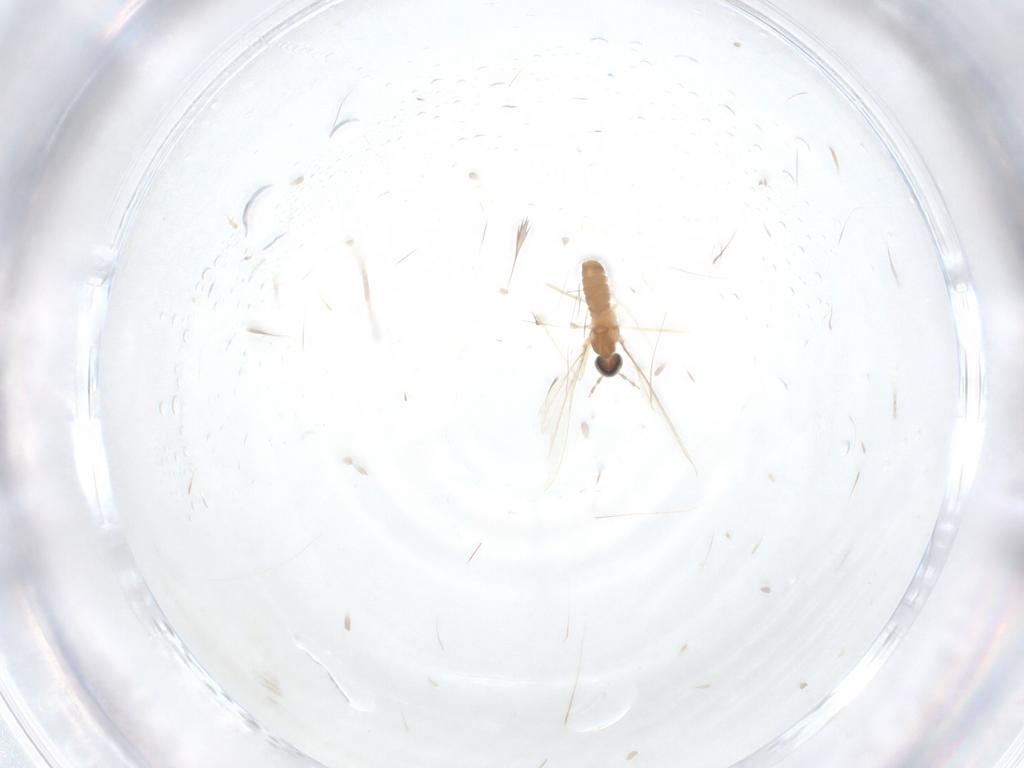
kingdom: Animalia
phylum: Arthropoda
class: Insecta
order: Diptera
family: Cecidomyiidae
